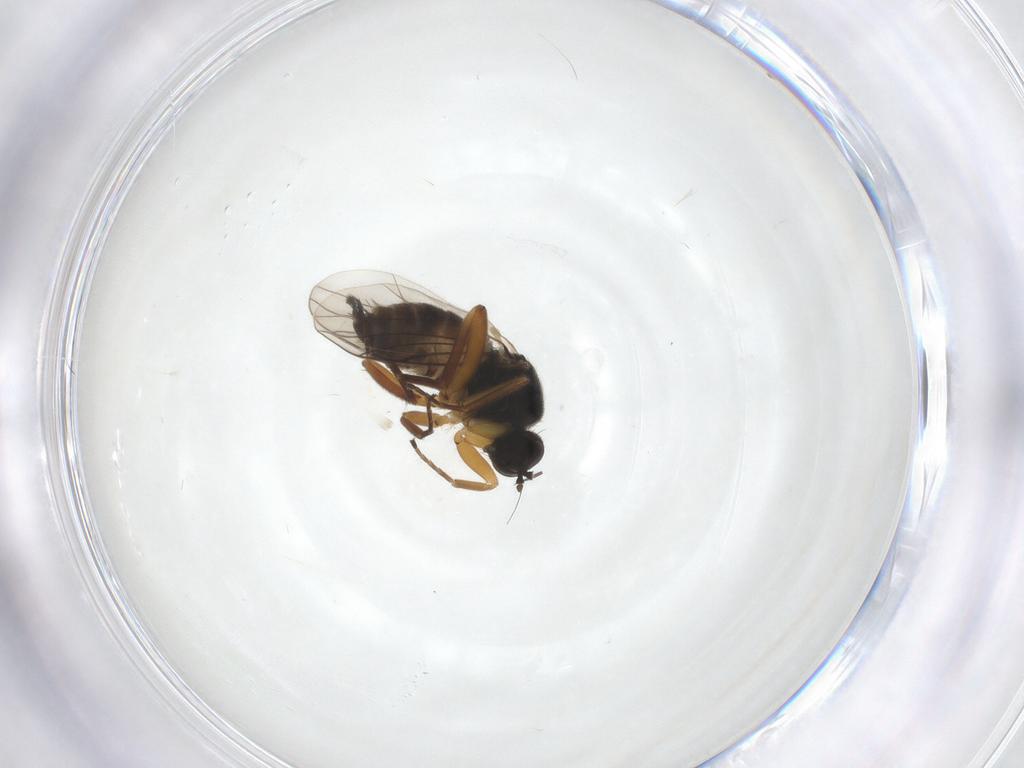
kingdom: Animalia
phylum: Arthropoda
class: Insecta
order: Diptera
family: Hybotidae
